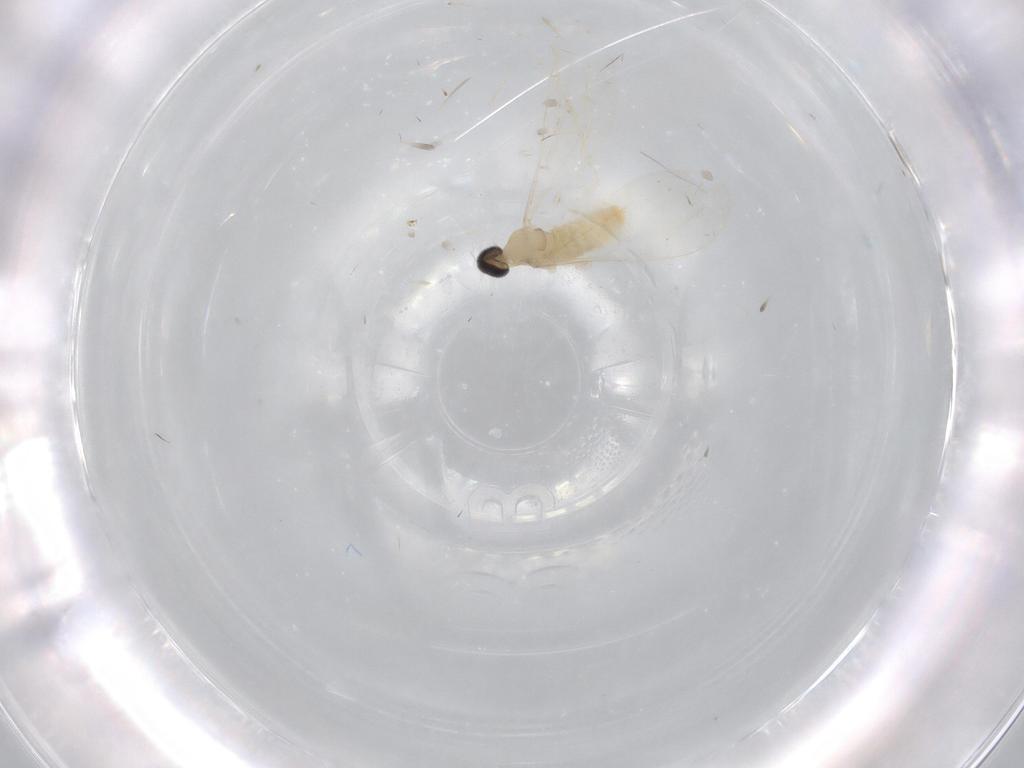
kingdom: Animalia
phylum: Arthropoda
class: Insecta
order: Diptera
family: Cecidomyiidae
